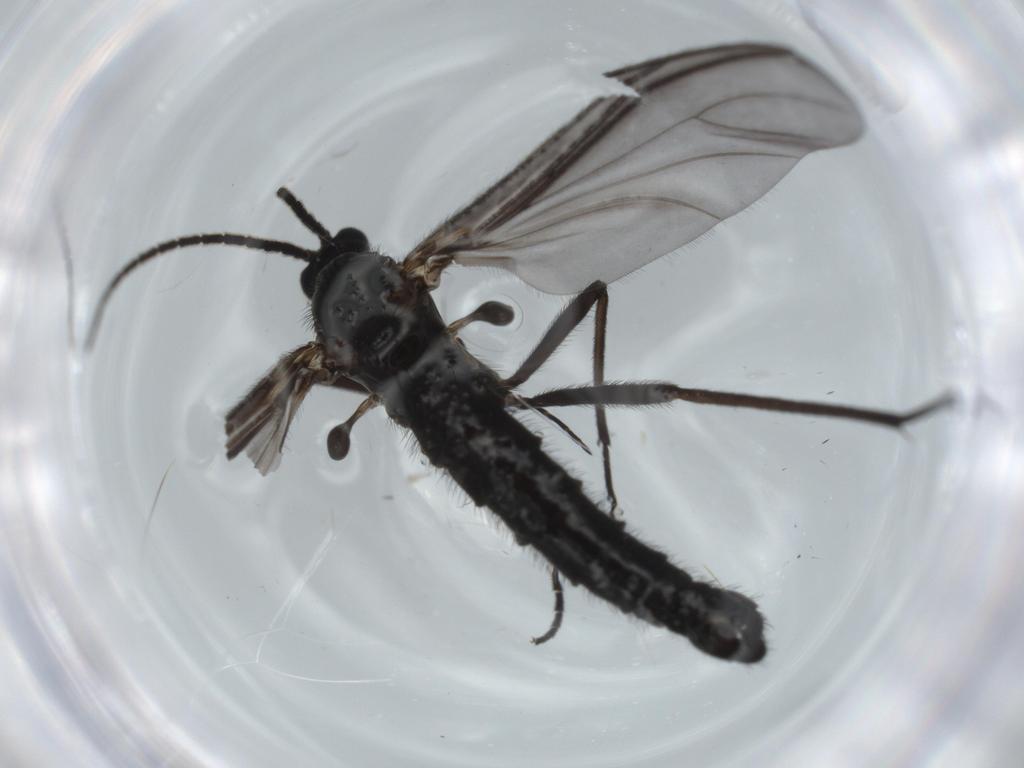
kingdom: Animalia
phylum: Arthropoda
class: Insecta
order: Diptera
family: Sciaridae
